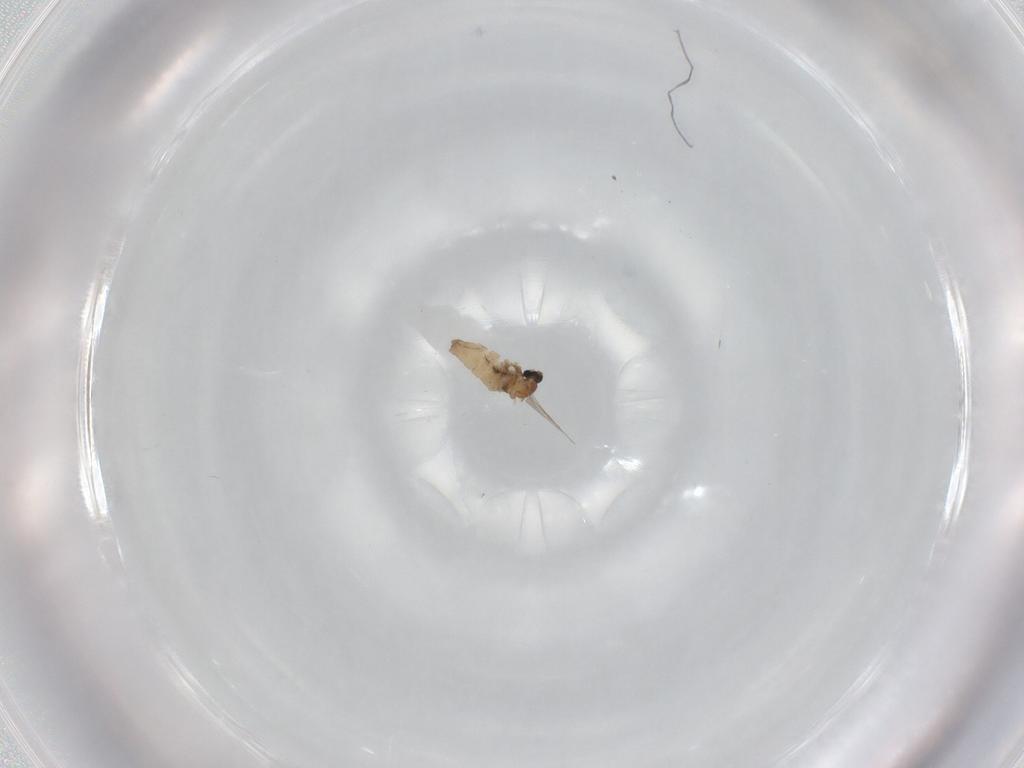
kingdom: Animalia
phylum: Arthropoda
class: Insecta
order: Diptera
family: Cecidomyiidae
